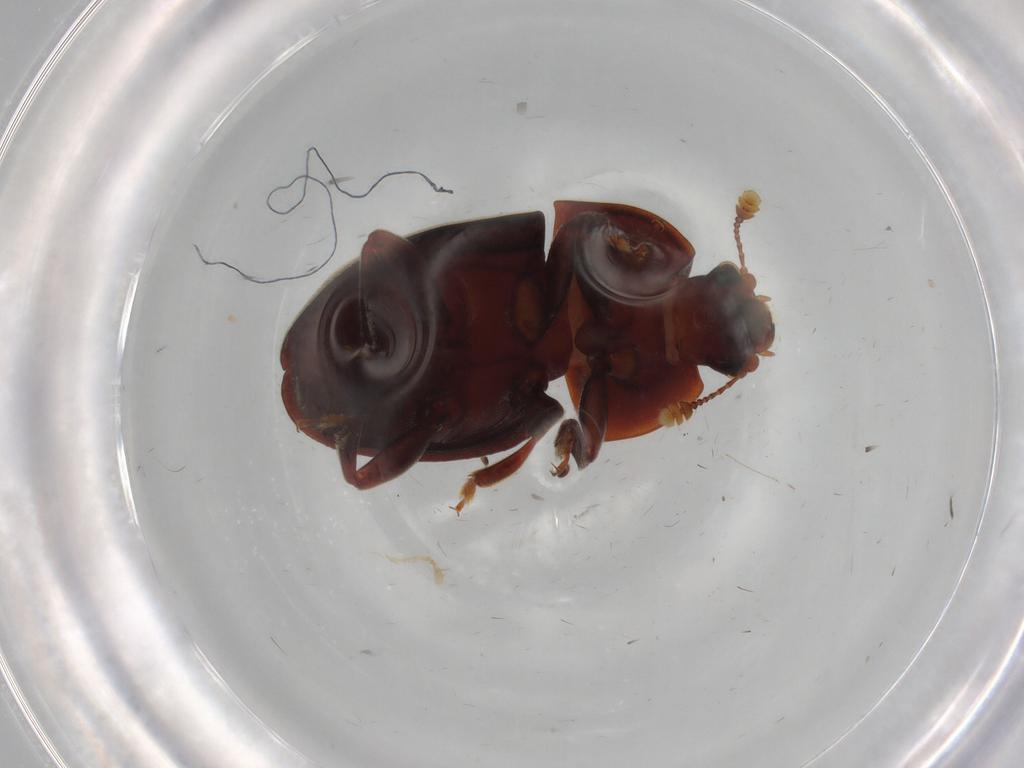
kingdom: Animalia
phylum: Arthropoda
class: Insecta
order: Coleoptera
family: Nitidulidae
